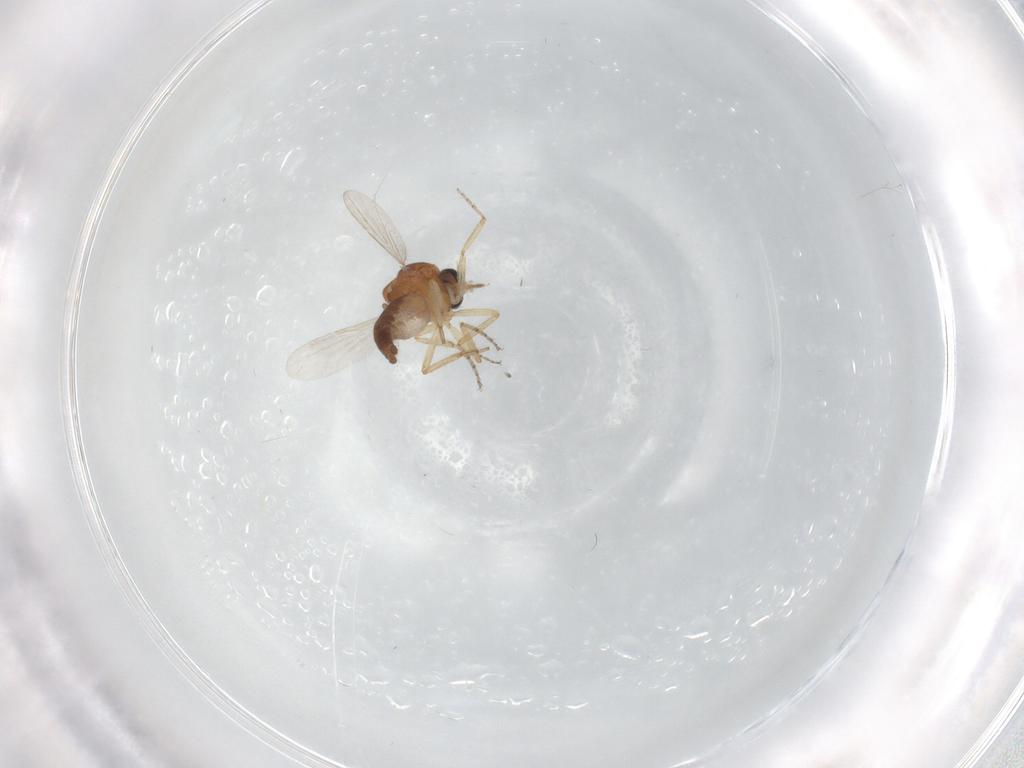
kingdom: Animalia
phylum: Arthropoda
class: Insecta
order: Diptera
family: Ceratopogonidae
